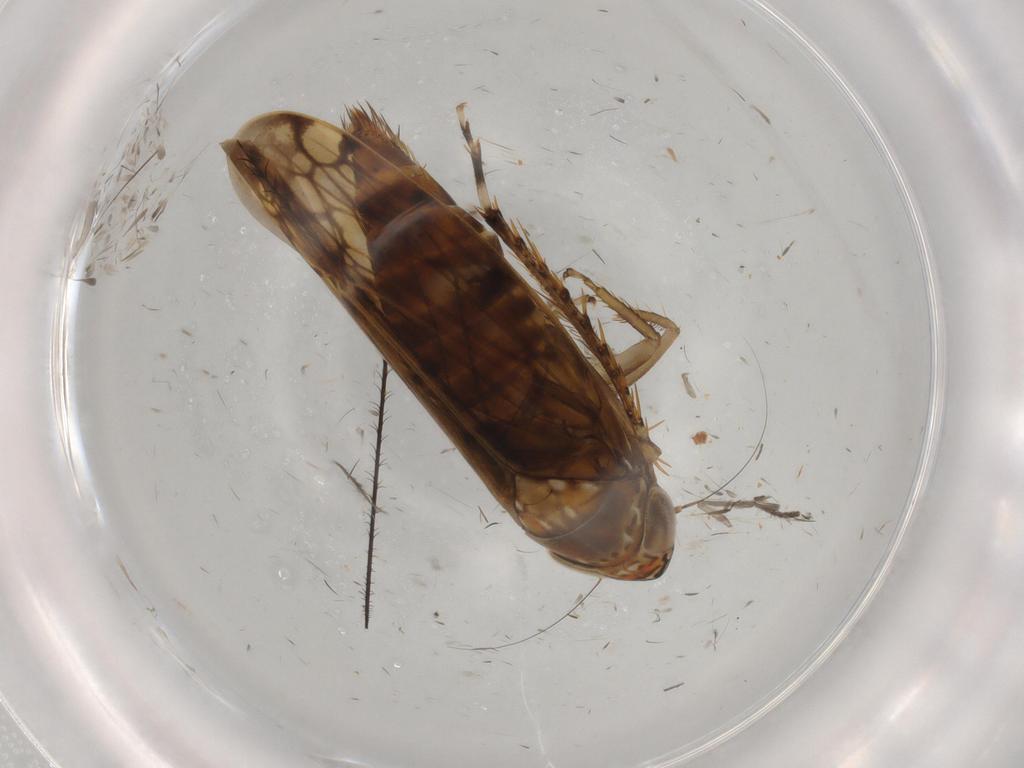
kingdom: Animalia
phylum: Arthropoda
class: Insecta
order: Hemiptera
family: Cicadellidae
